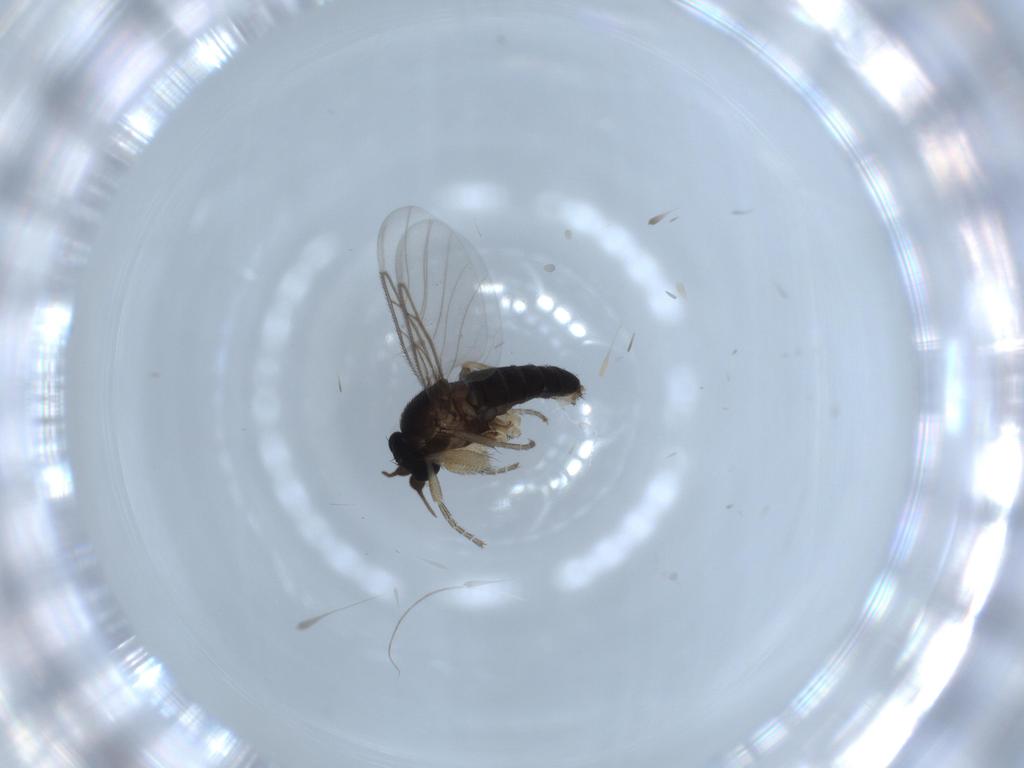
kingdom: Animalia
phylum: Arthropoda
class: Insecta
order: Diptera
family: Phoridae
